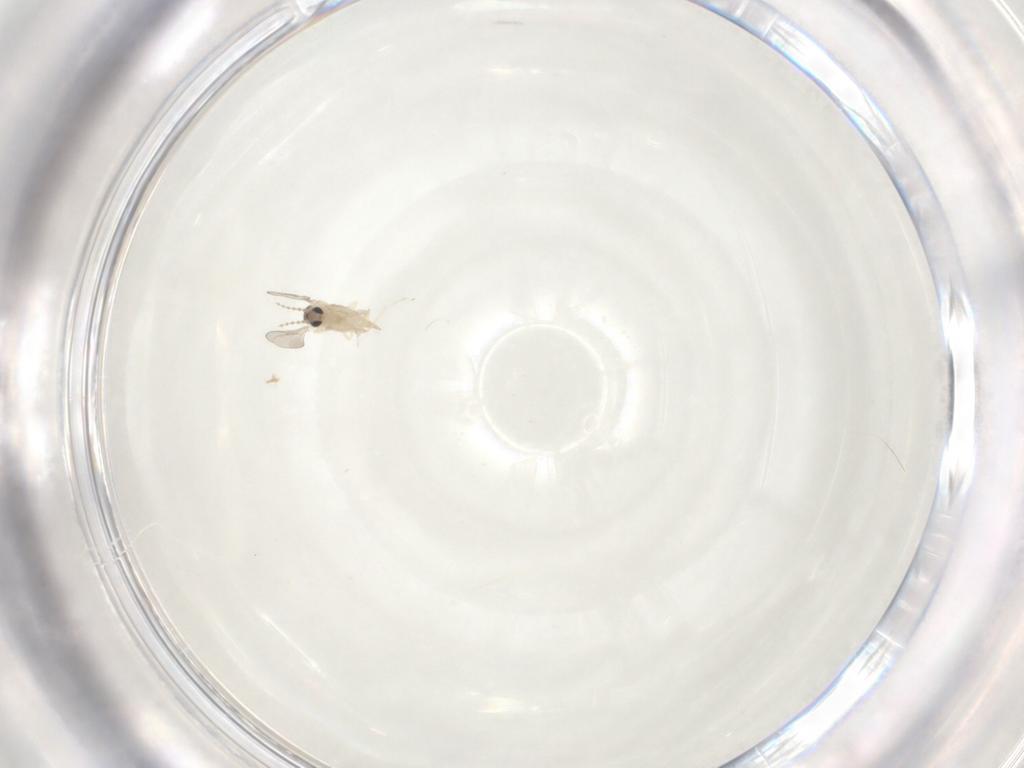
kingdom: Animalia
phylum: Arthropoda
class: Insecta
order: Diptera
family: Cecidomyiidae
